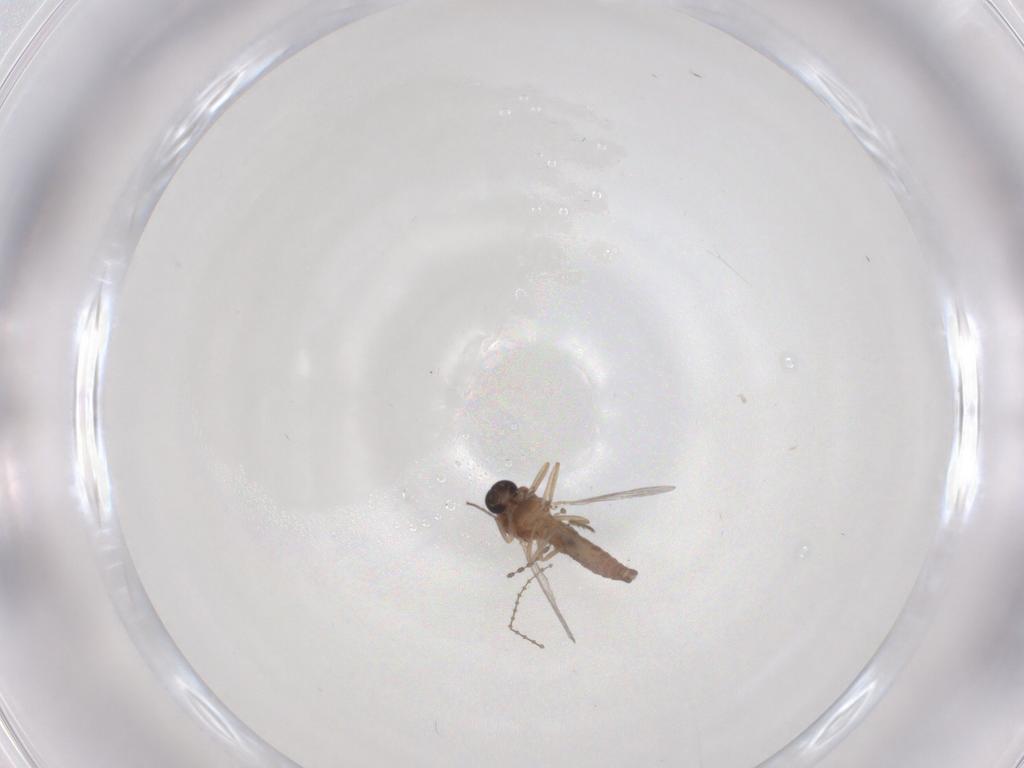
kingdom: Animalia
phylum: Arthropoda
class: Insecta
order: Diptera
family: Ceratopogonidae
